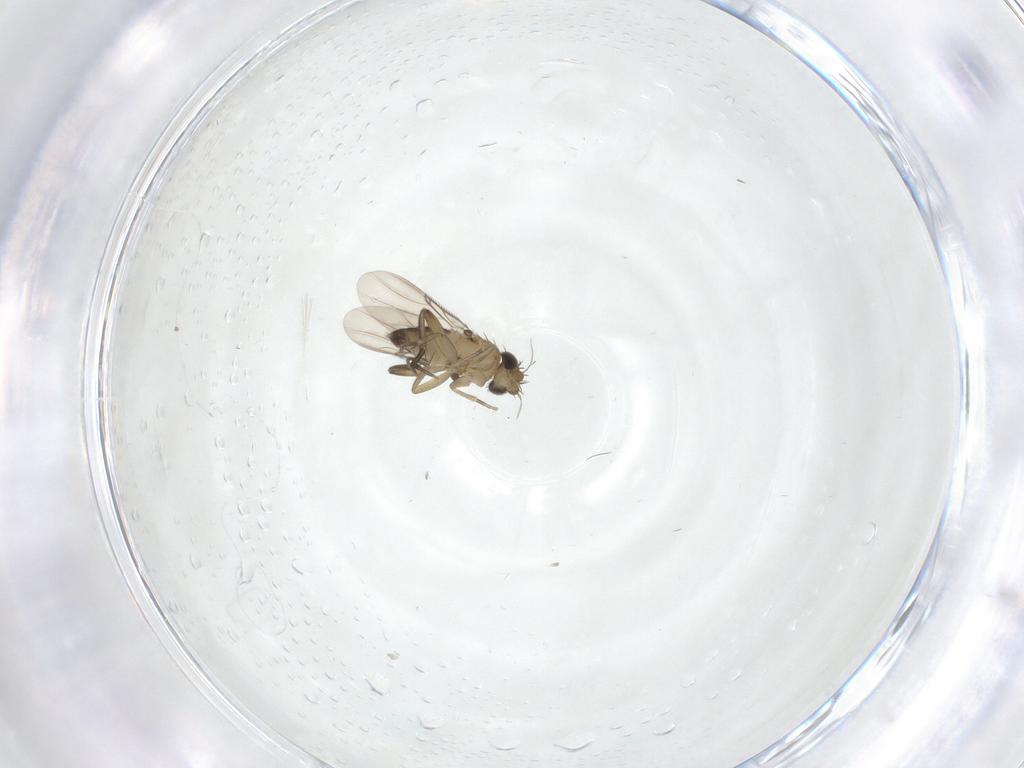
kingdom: Animalia
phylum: Arthropoda
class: Insecta
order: Diptera
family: Phoridae
